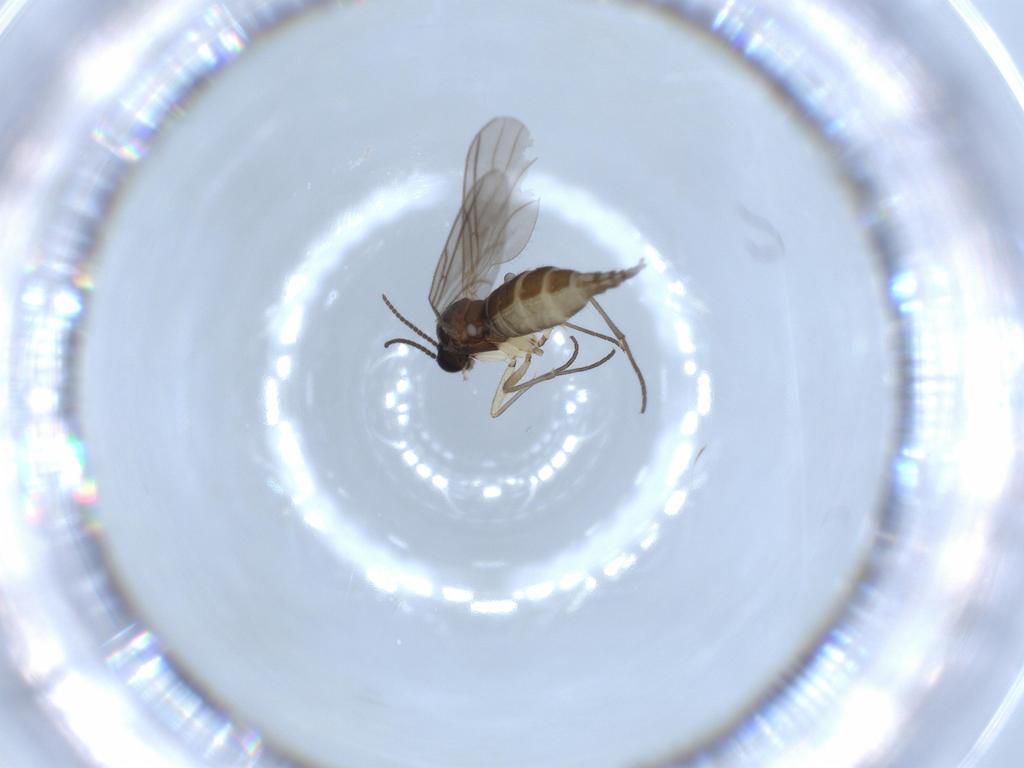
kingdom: Animalia
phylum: Arthropoda
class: Insecta
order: Diptera
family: Sciaridae
